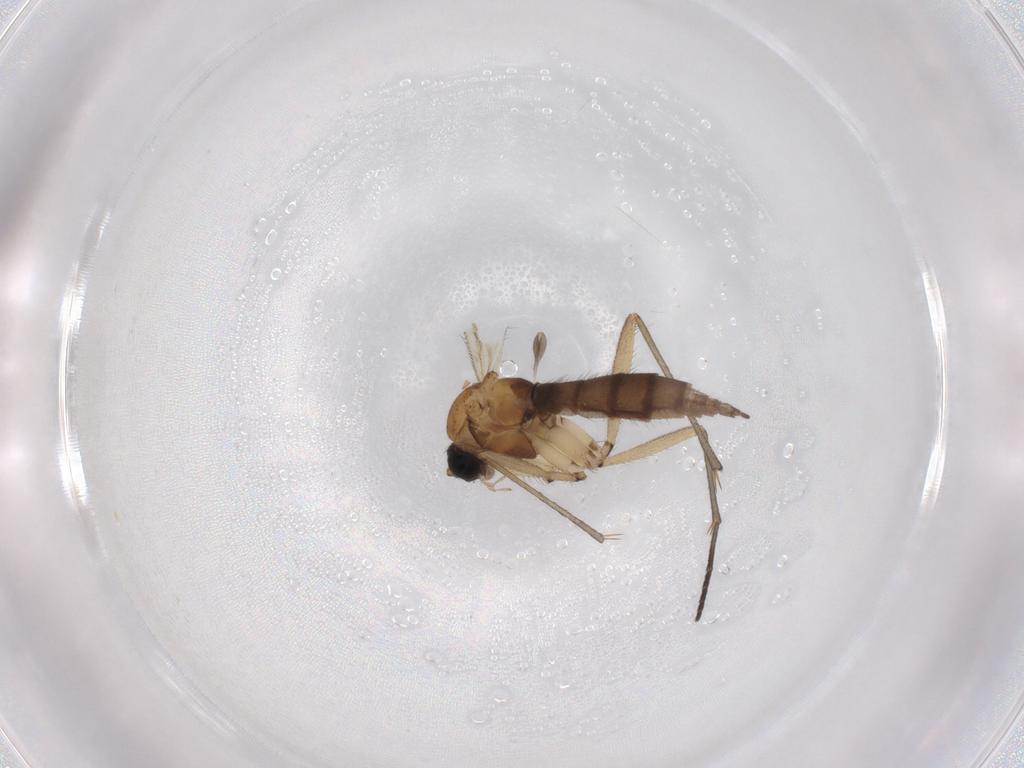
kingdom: Animalia
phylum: Arthropoda
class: Insecta
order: Diptera
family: Sciaridae
